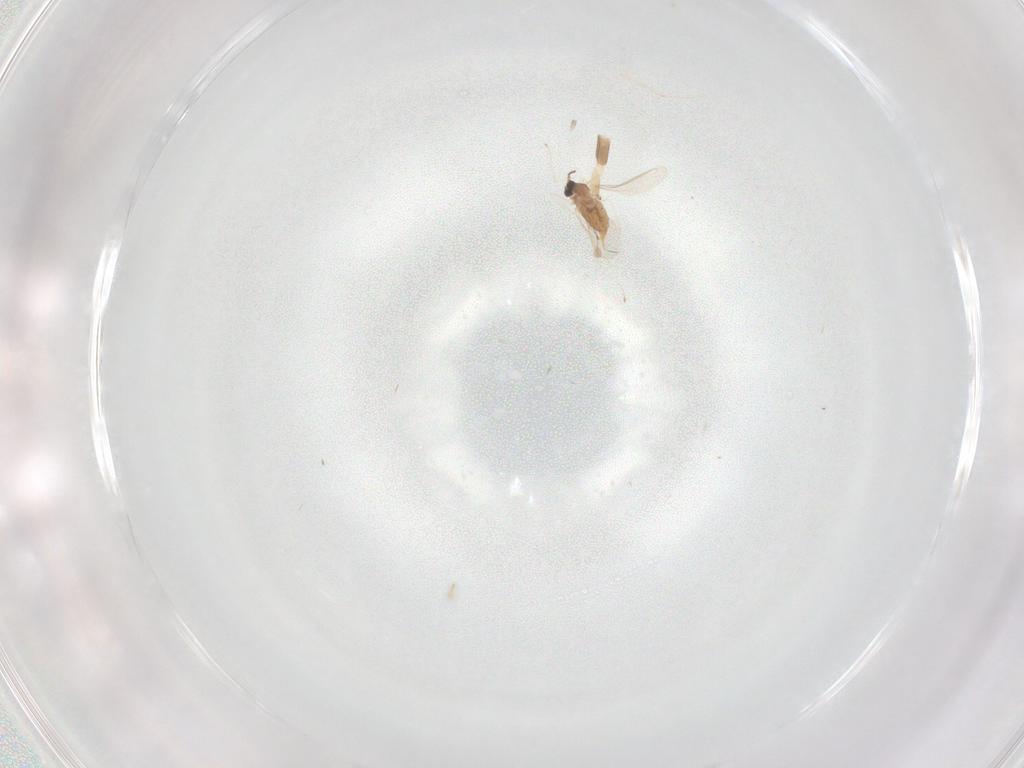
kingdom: Animalia
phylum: Arthropoda
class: Insecta
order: Diptera
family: Cecidomyiidae
